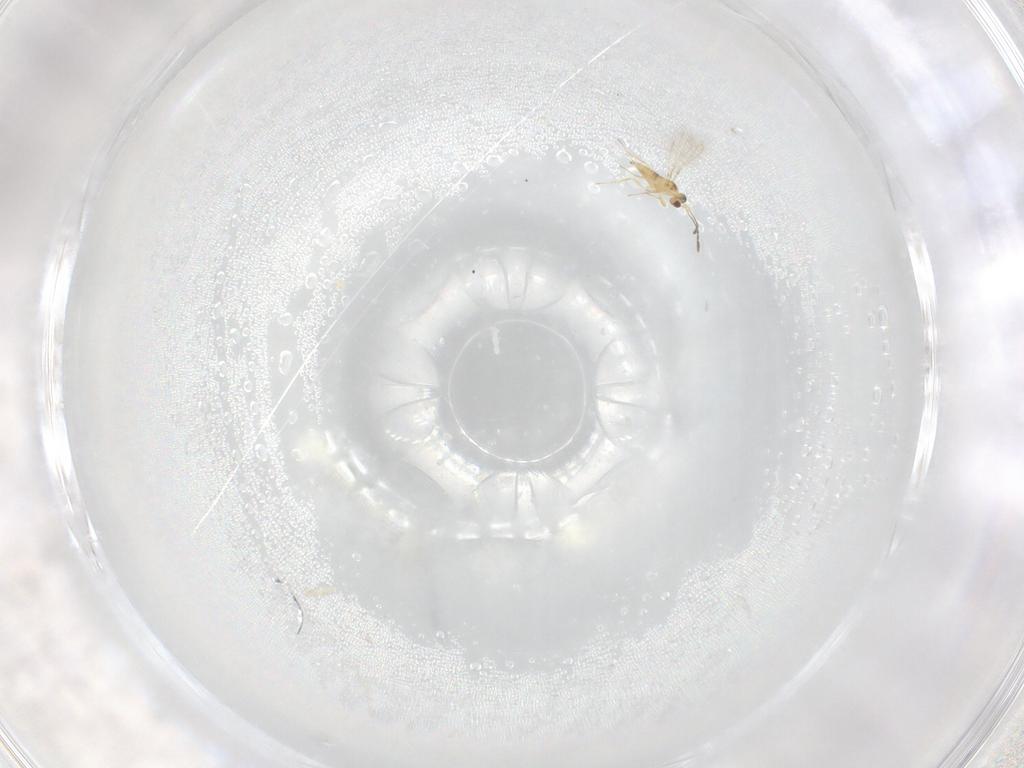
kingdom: Animalia
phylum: Arthropoda
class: Insecta
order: Hymenoptera
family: Mymaridae
